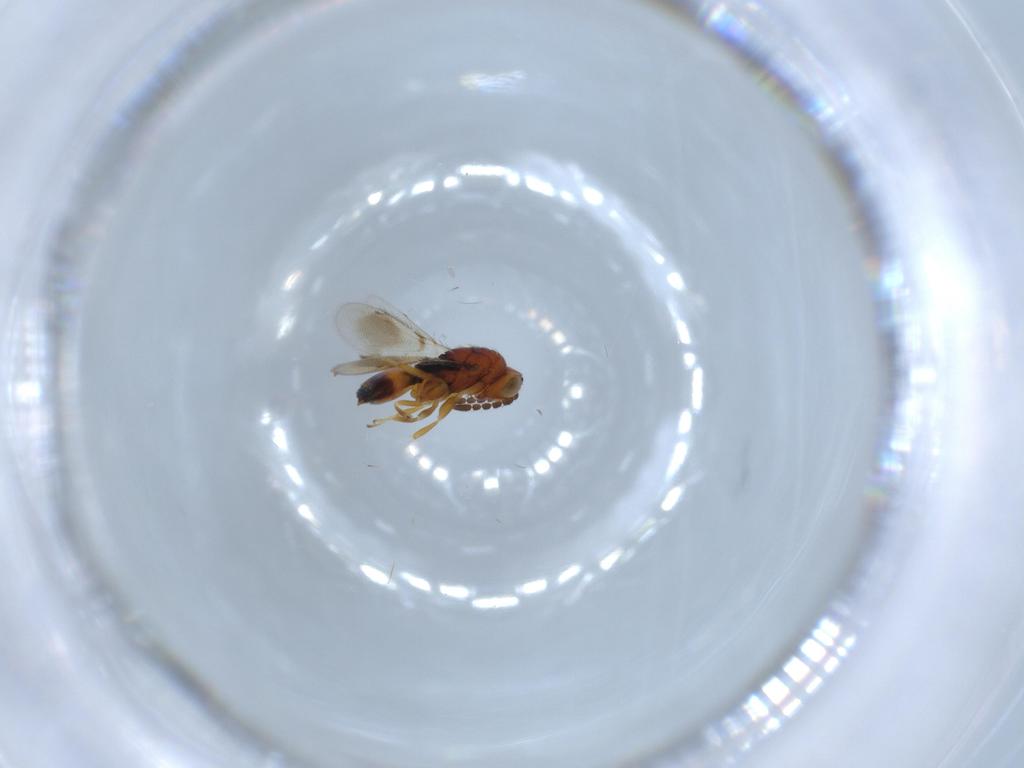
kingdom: Animalia
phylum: Arthropoda
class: Insecta
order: Hymenoptera
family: Moranilidae
